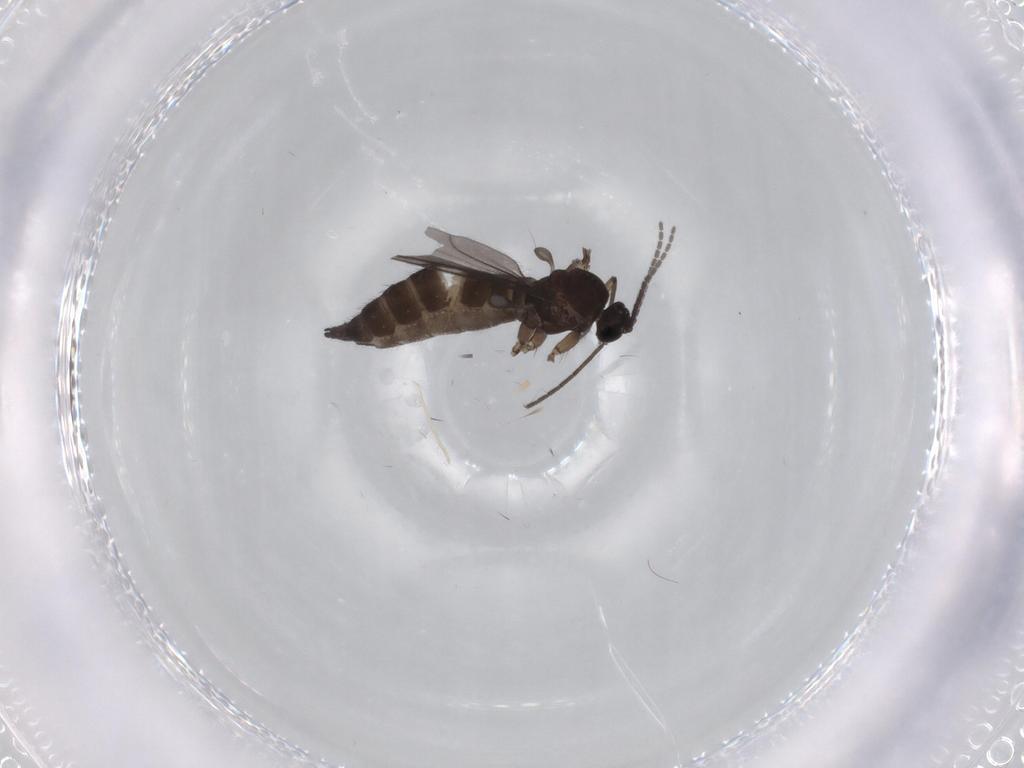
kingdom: Animalia
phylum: Arthropoda
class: Insecta
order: Diptera
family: Sciaridae
